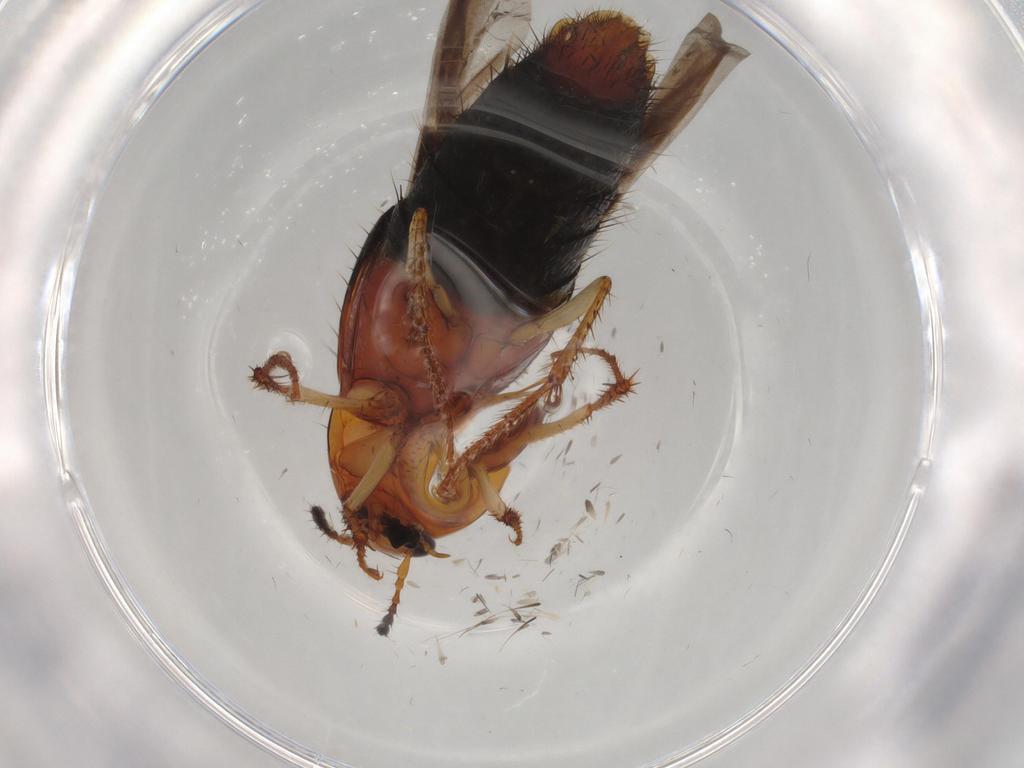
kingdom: Animalia
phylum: Arthropoda
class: Insecta
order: Coleoptera
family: Staphylinidae
